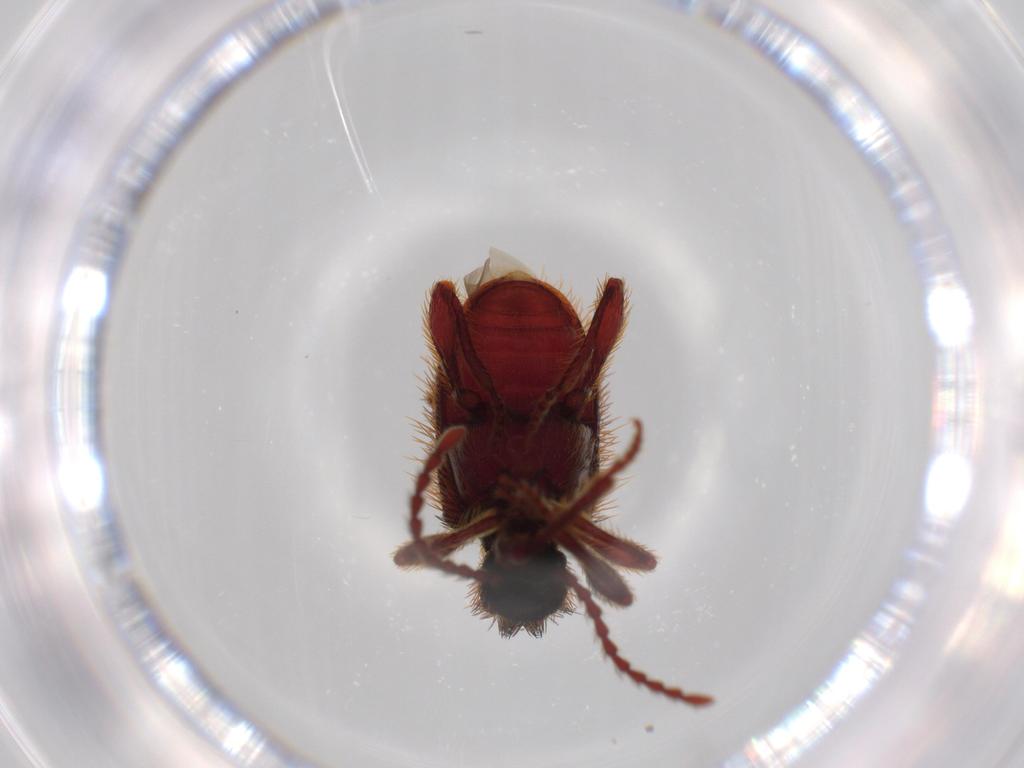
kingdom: Animalia
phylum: Arthropoda
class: Insecta
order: Coleoptera
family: Ptinidae
